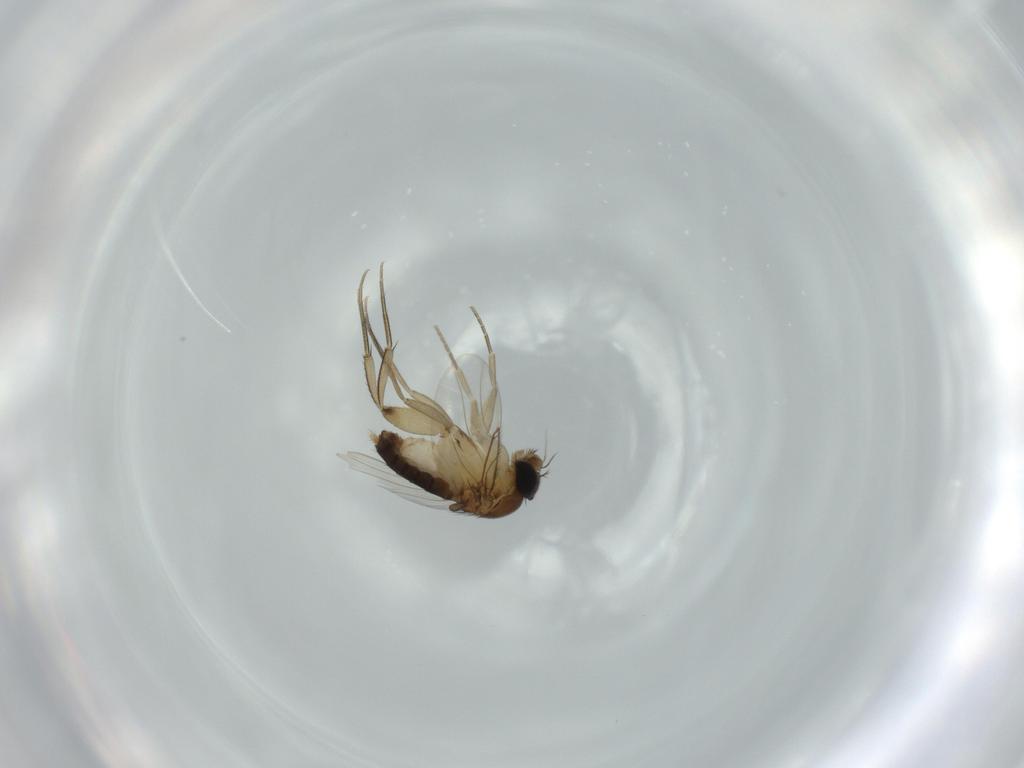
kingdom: Animalia
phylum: Arthropoda
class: Insecta
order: Diptera
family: Phoridae
